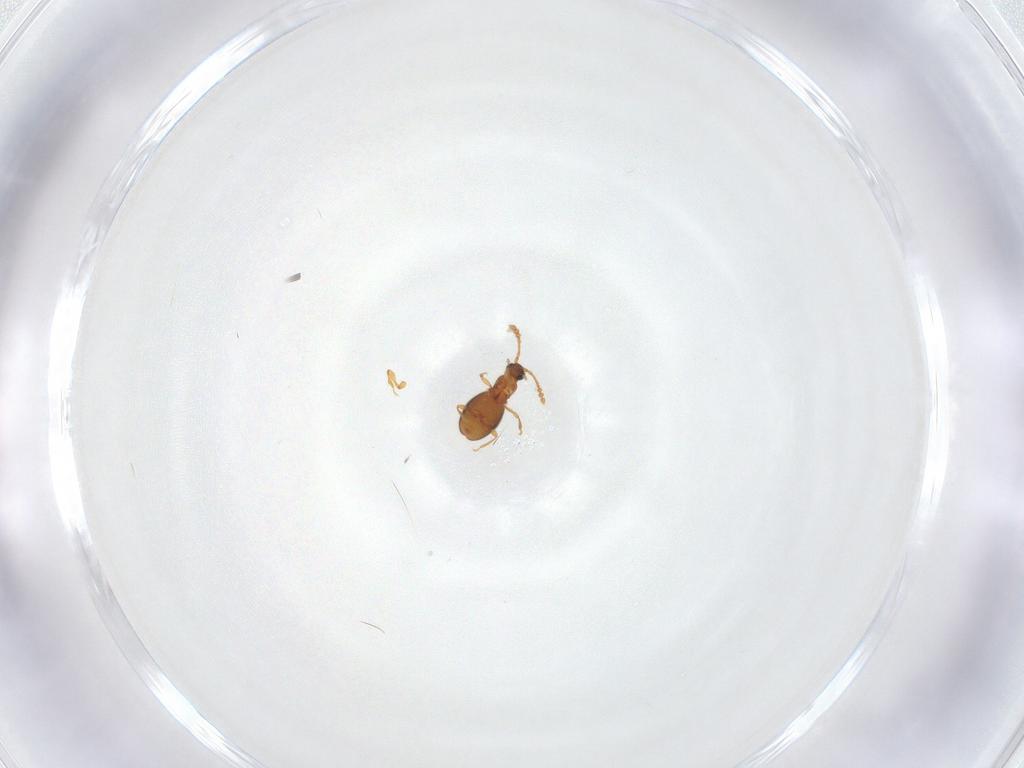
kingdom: Animalia
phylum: Arthropoda
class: Insecta
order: Coleoptera
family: Staphylinidae
